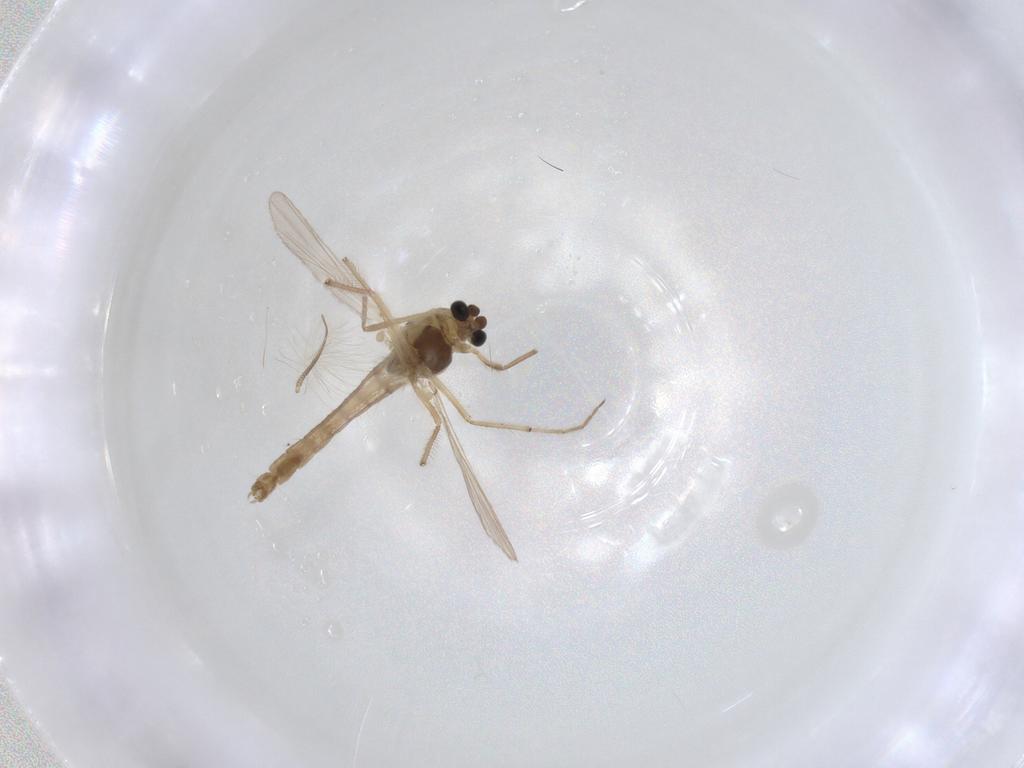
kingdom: Animalia
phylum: Arthropoda
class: Insecta
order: Diptera
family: Chironomidae
